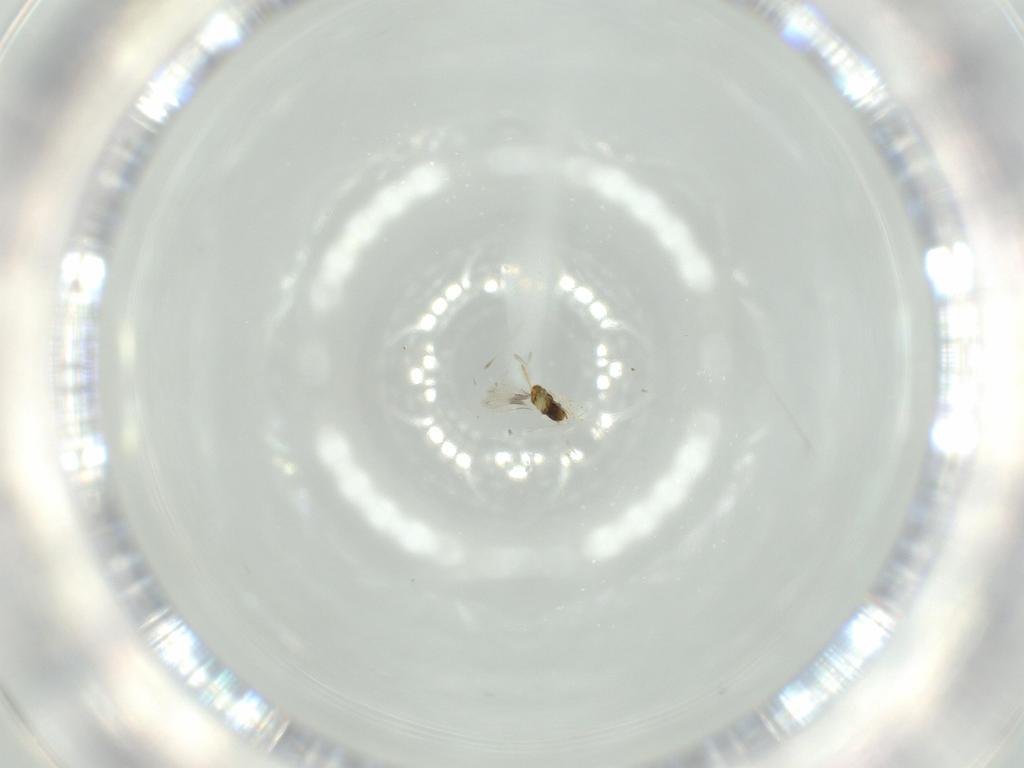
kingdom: Animalia
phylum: Arthropoda
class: Insecta
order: Hymenoptera
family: Aphelinidae
